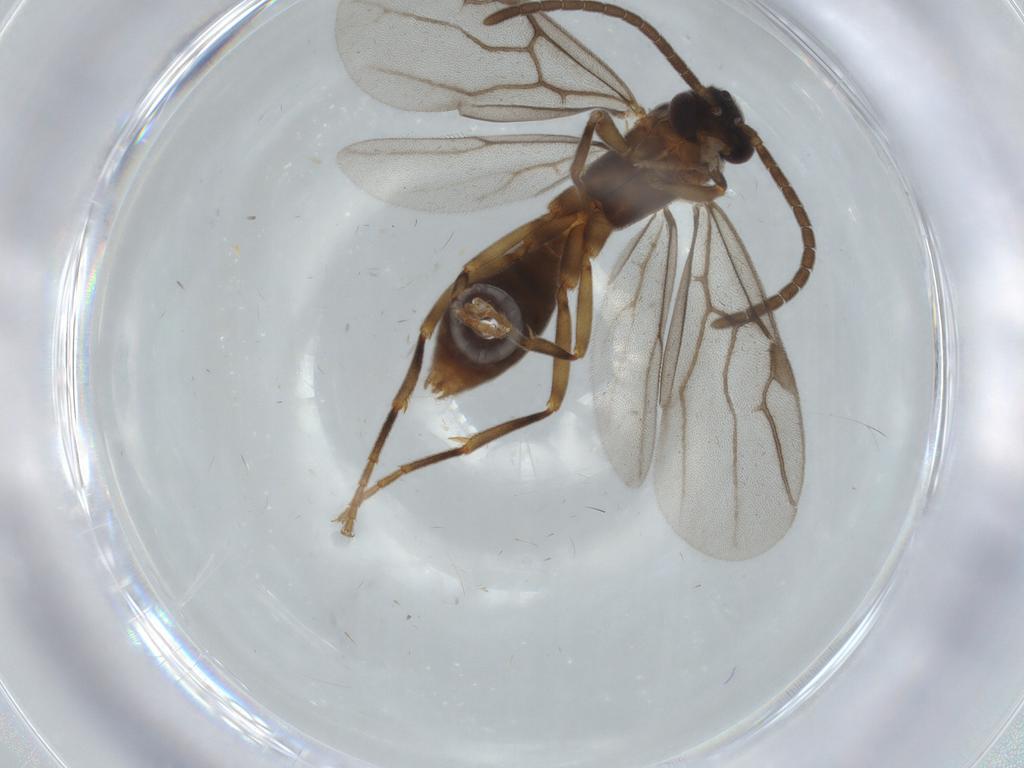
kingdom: Animalia
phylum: Arthropoda
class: Insecta
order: Hymenoptera
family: Formicidae
